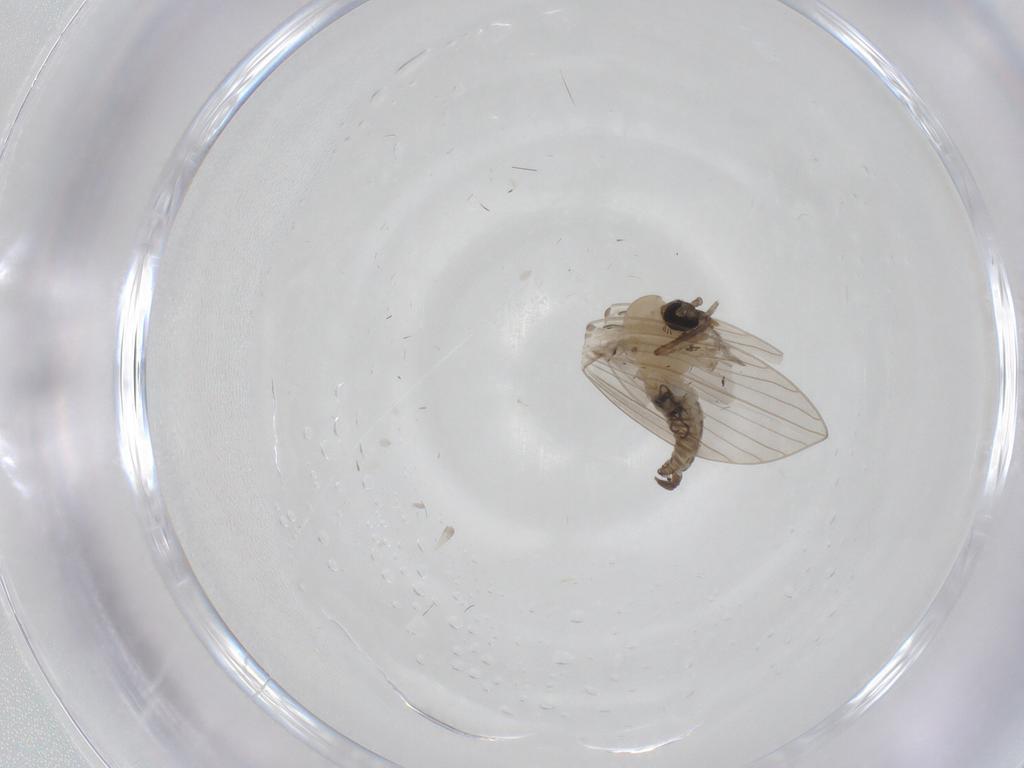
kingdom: Animalia
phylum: Arthropoda
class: Insecta
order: Diptera
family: Psychodidae
